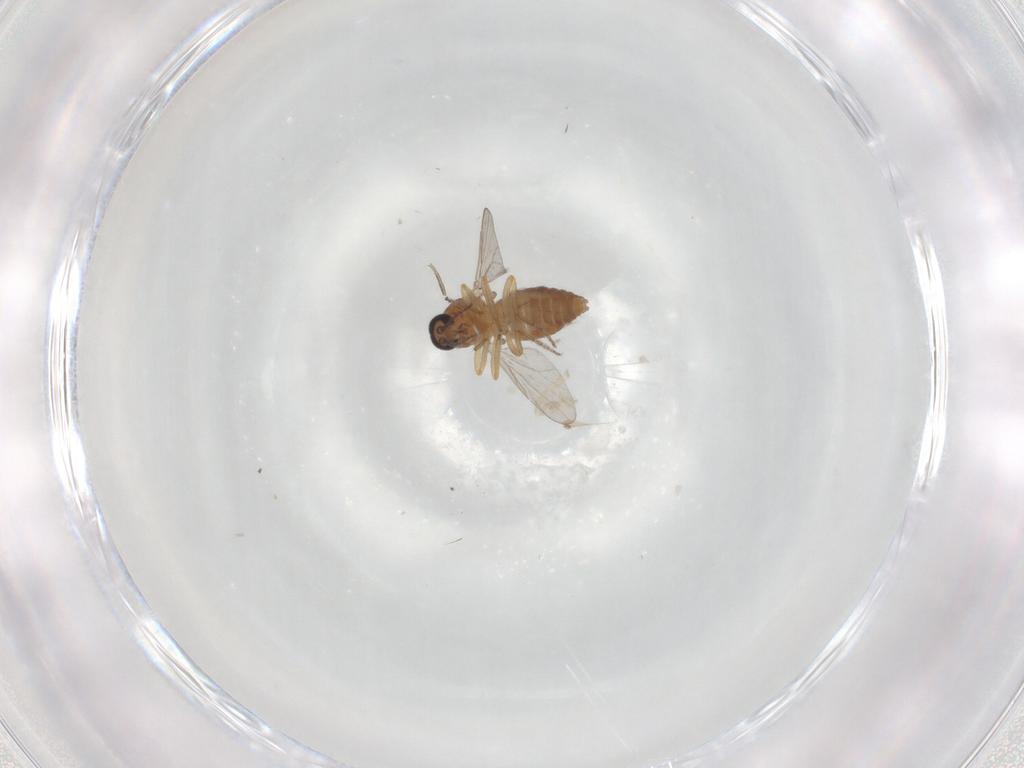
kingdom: Animalia
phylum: Arthropoda
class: Insecta
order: Diptera
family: Ceratopogonidae
